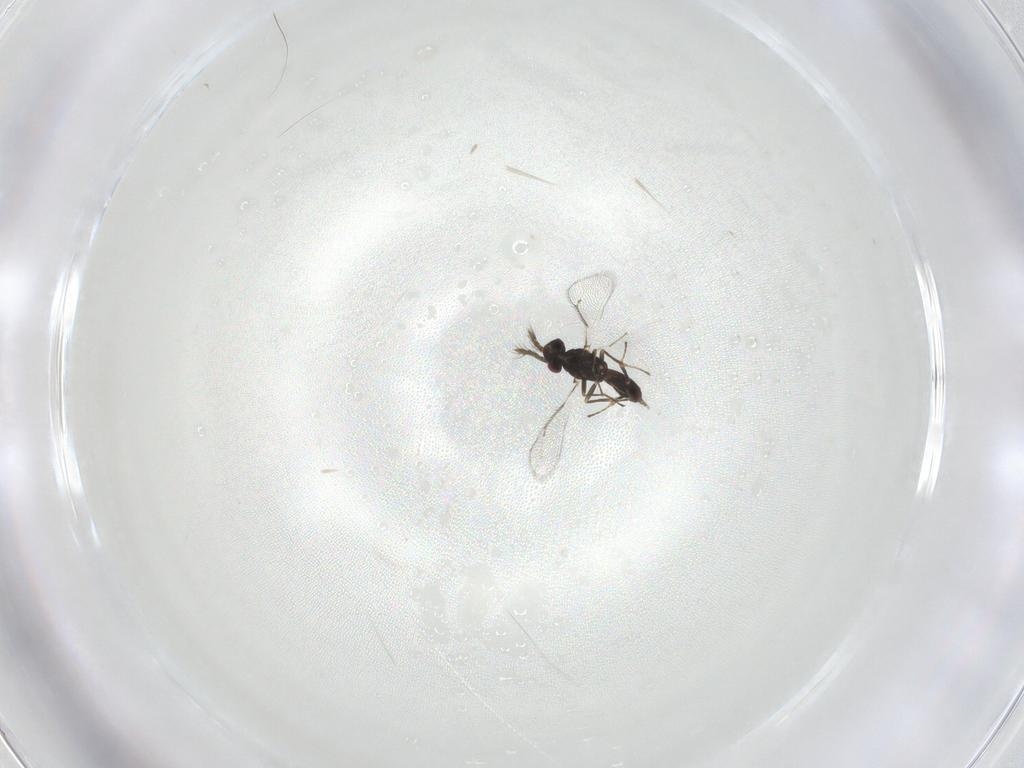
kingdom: Animalia
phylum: Arthropoda
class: Insecta
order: Hymenoptera
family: Eulophidae
